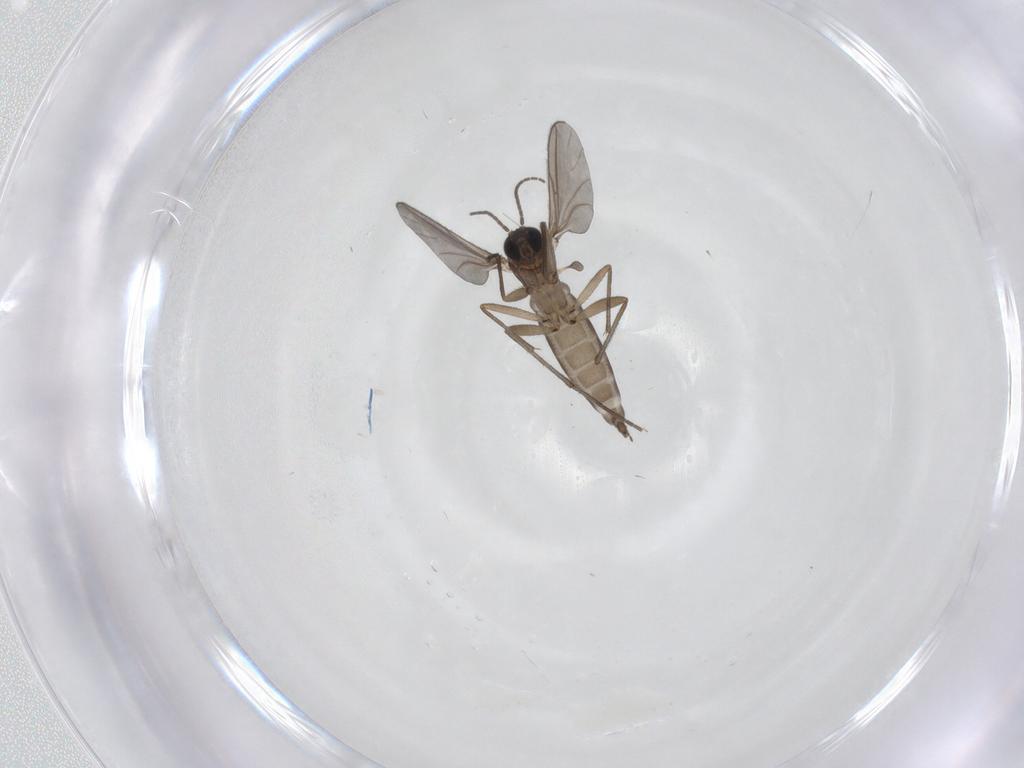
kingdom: Animalia
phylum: Arthropoda
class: Insecta
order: Diptera
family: Sciaridae
